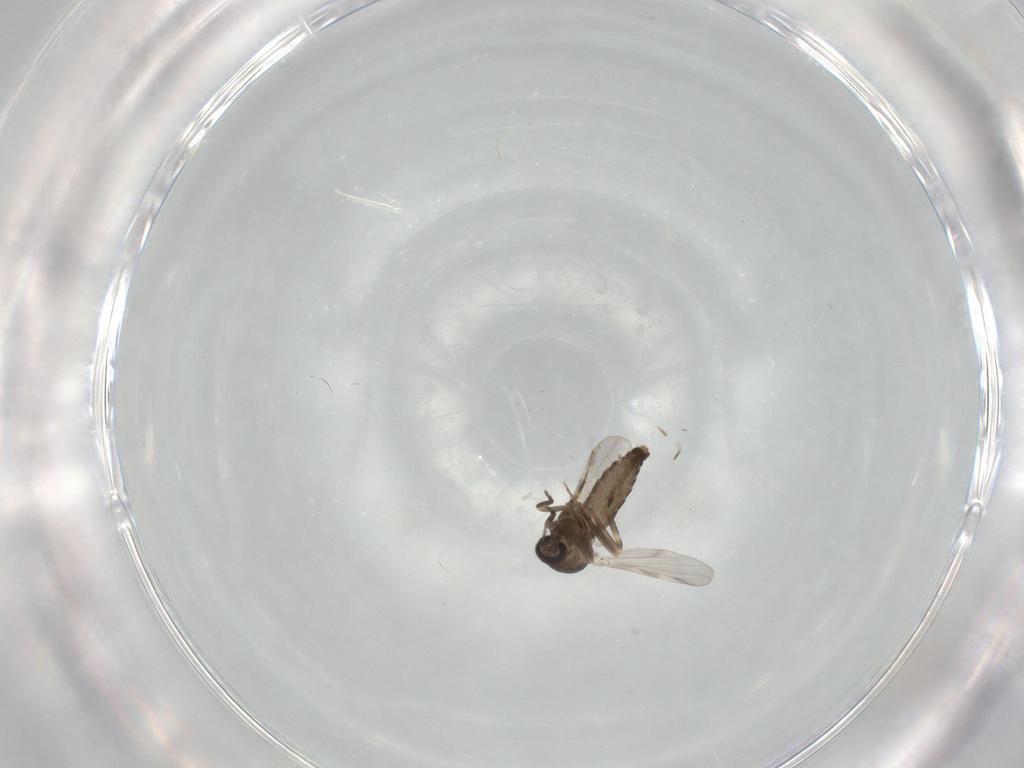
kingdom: Animalia
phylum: Arthropoda
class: Insecta
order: Diptera
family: Ceratopogonidae
